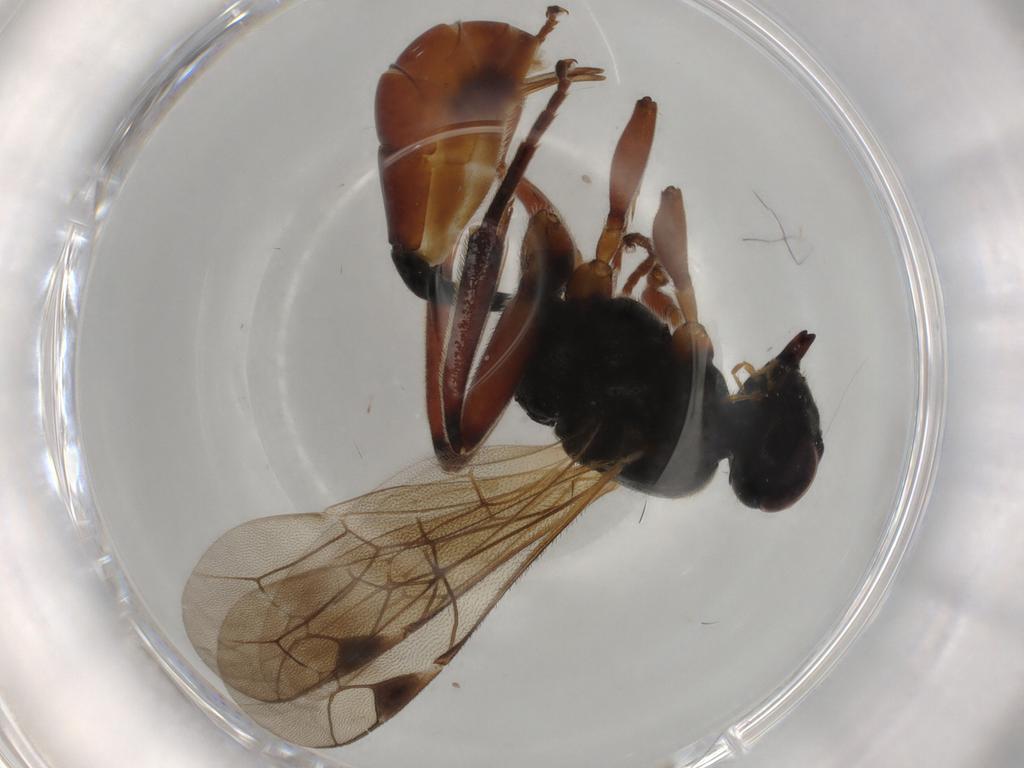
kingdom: Animalia
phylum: Arthropoda
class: Insecta
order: Hymenoptera
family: Ichneumonidae
